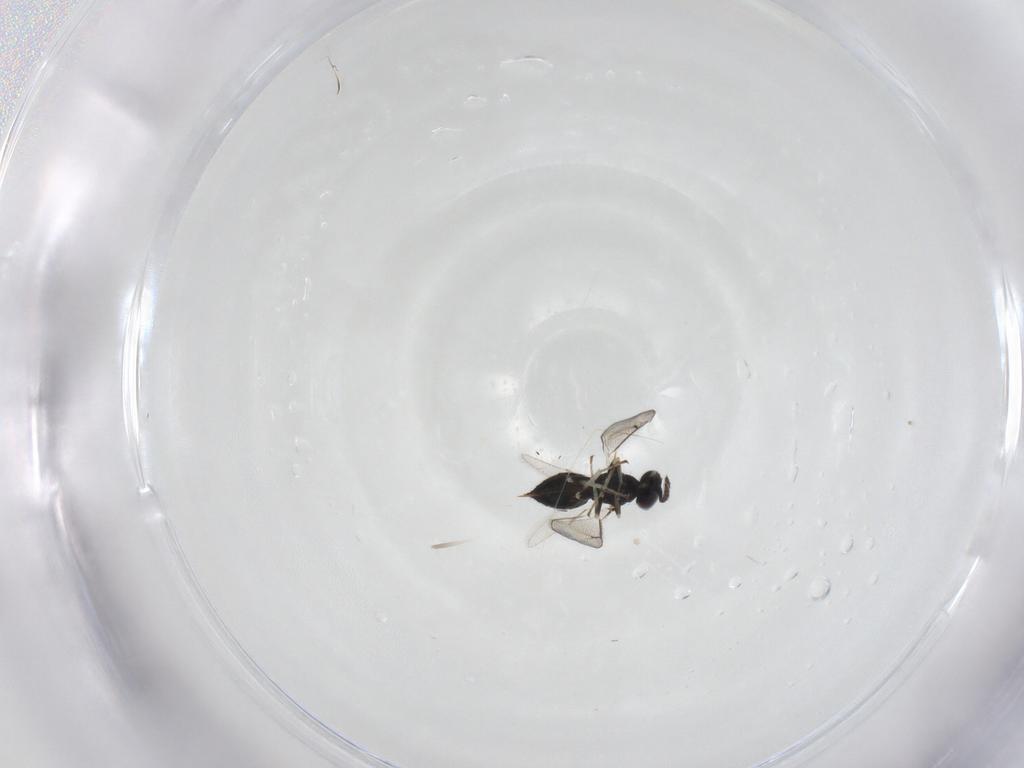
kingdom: Animalia
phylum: Arthropoda
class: Insecta
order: Hymenoptera
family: Eulophidae
